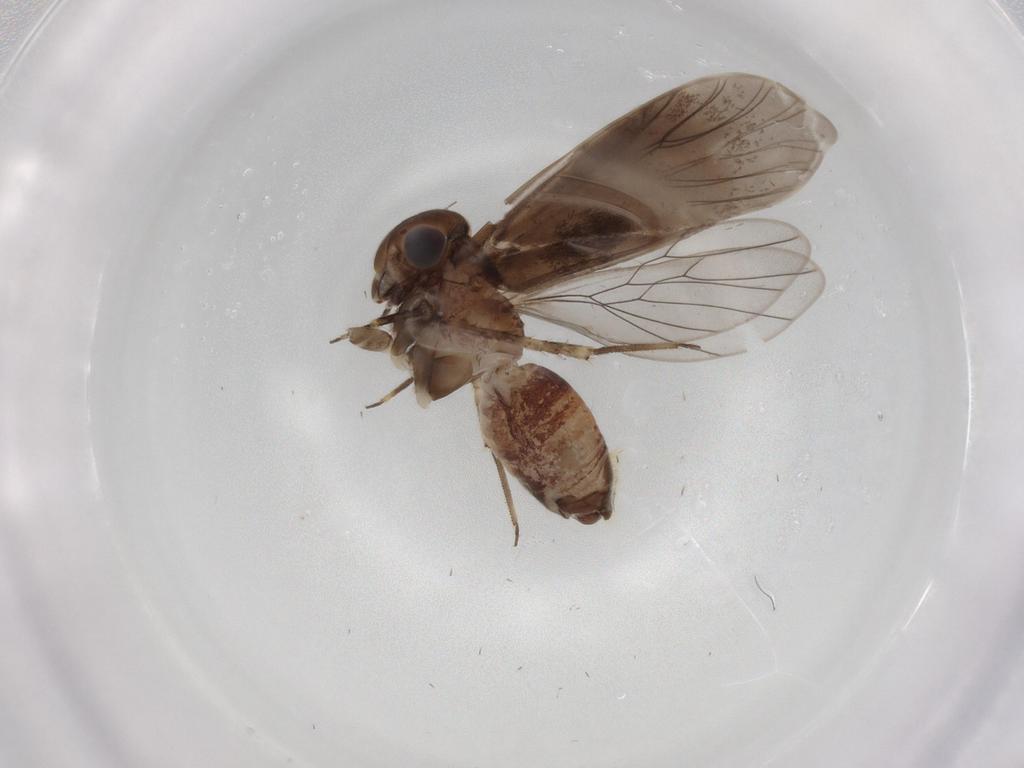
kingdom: Animalia
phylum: Arthropoda
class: Insecta
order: Psocodea
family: Amphientomidae
